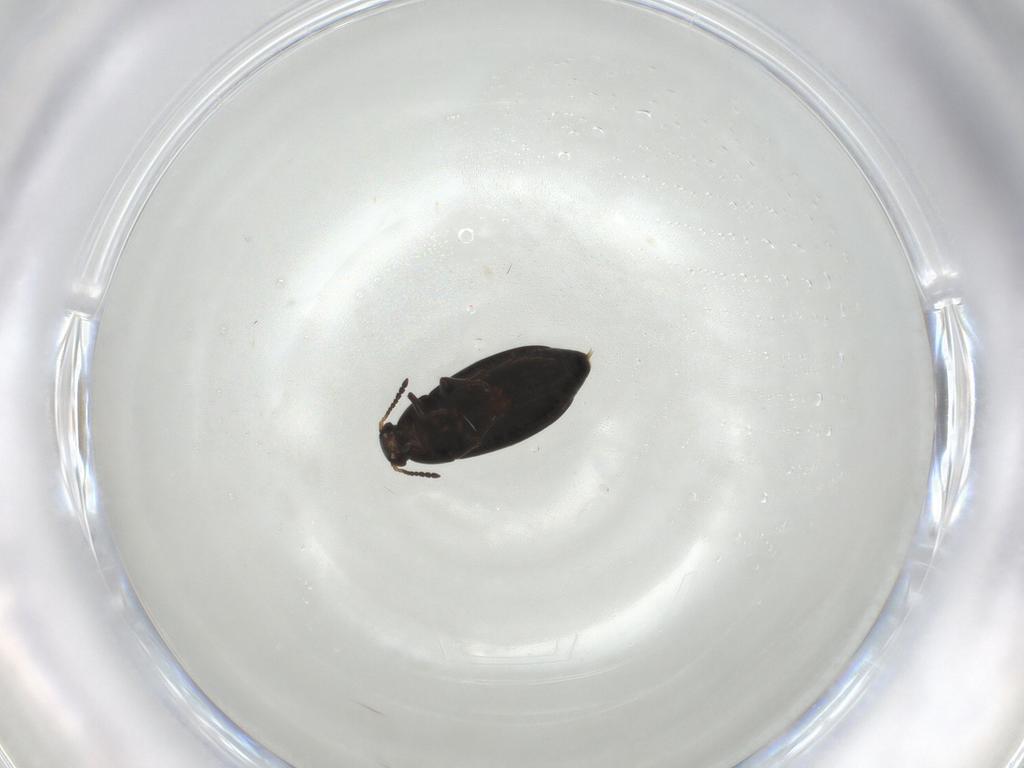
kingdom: Animalia
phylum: Arthropoda
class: Insecta
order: Coleoptera
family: Scraptiidae
